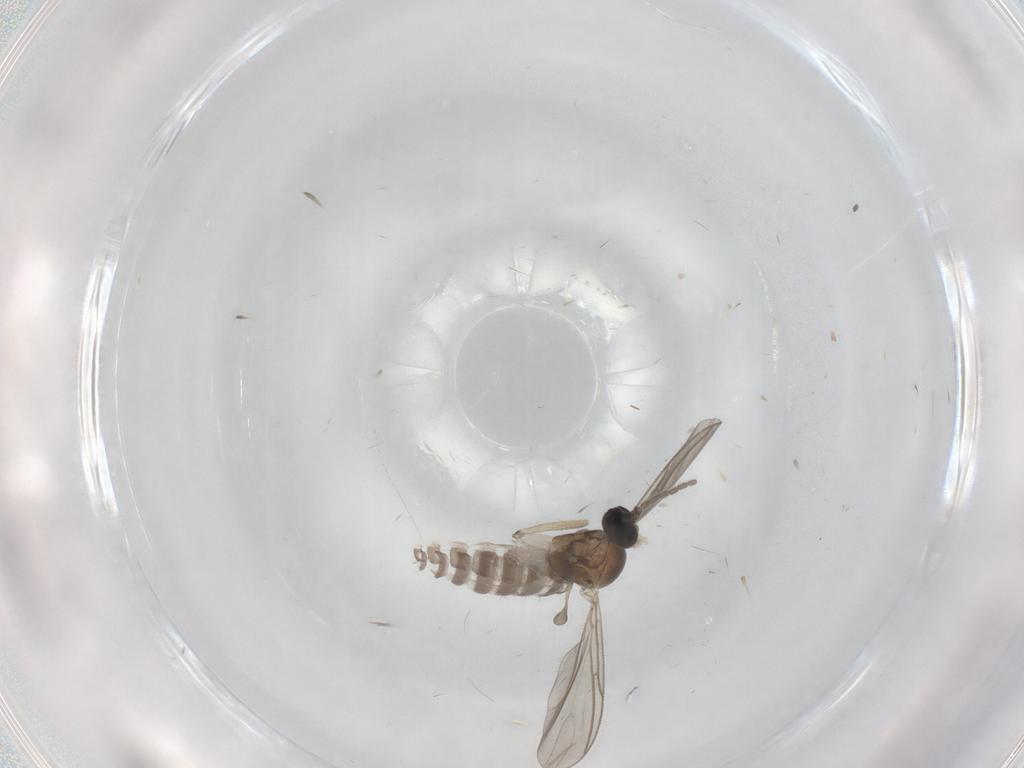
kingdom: Animalia
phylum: Arthropoda
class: Insecta
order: Diptera
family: Sciaridae
